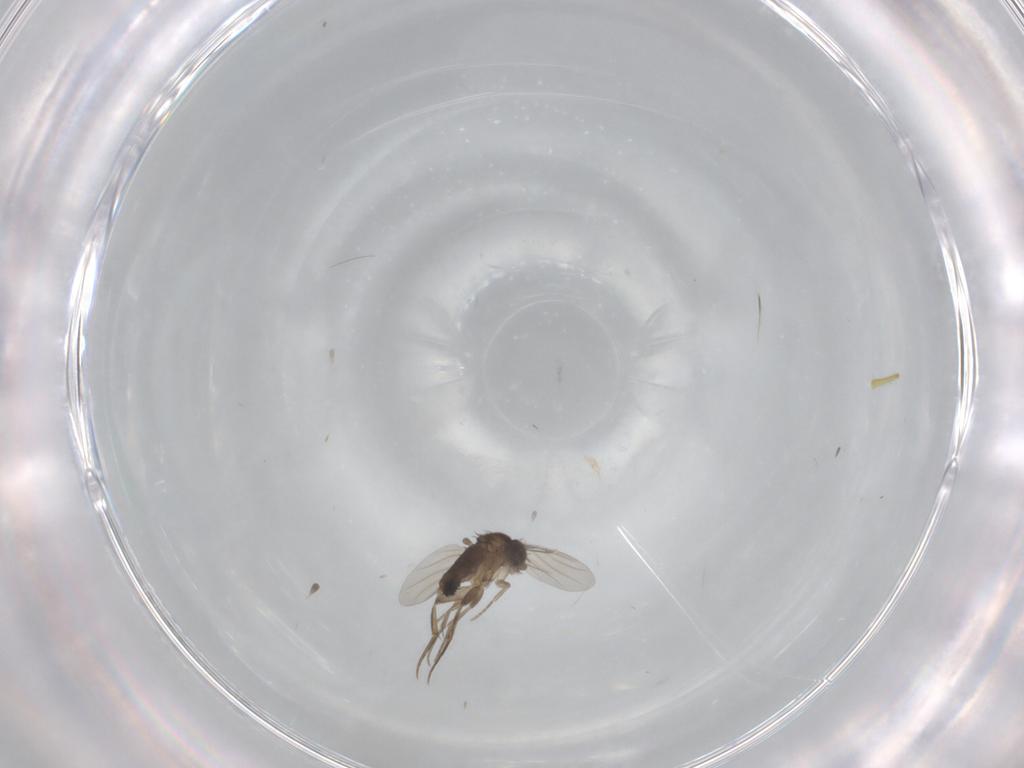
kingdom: Animalia
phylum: Arthropoda
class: Insecta
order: Diptera
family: Phoridae
